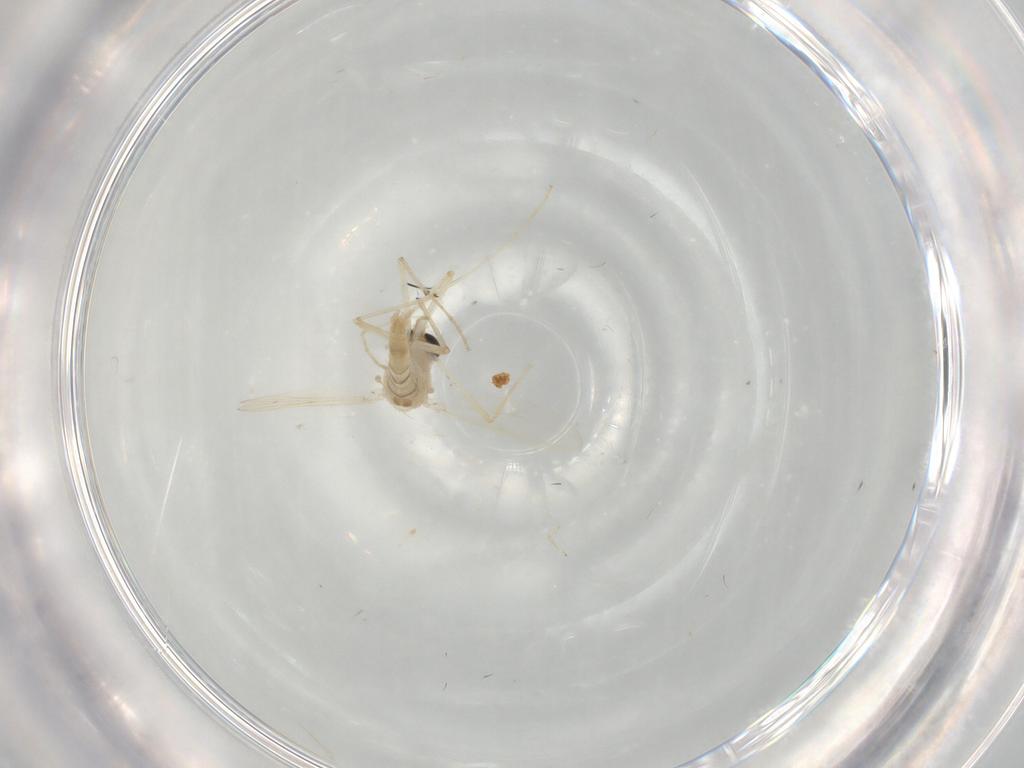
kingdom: Animalia
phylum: Arthropoda
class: Insecta
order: Diptera
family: Chironomidae
